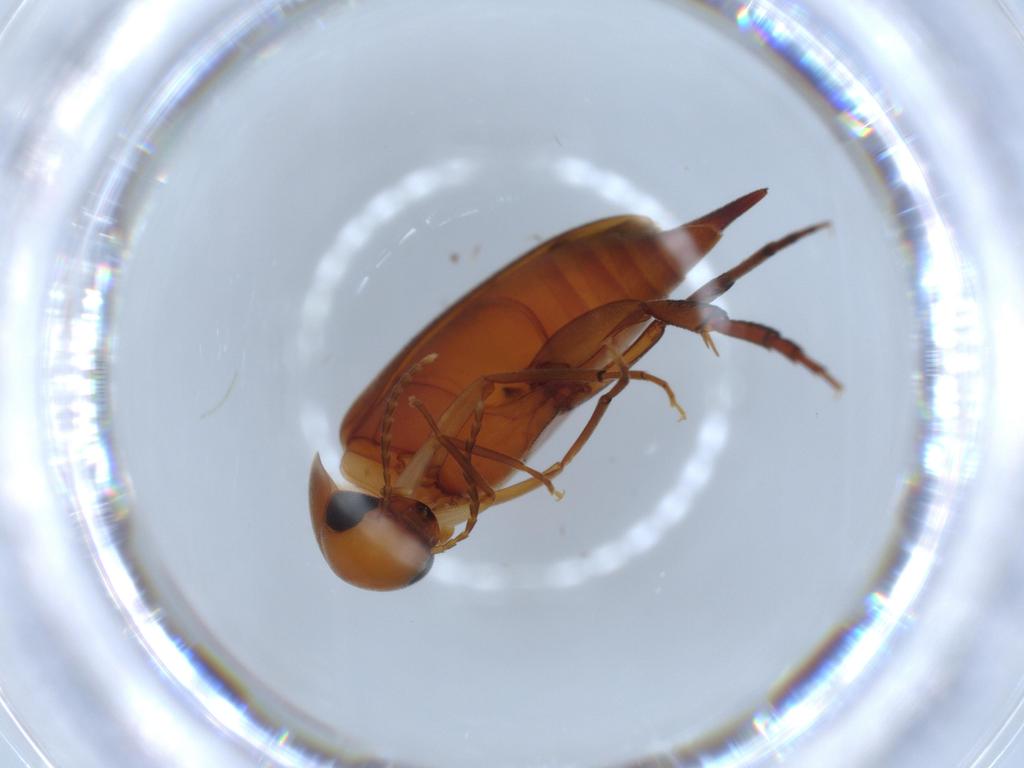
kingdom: Animalia
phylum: Arthropoda
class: Insecta
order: Coleoptera
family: Mordellidae
